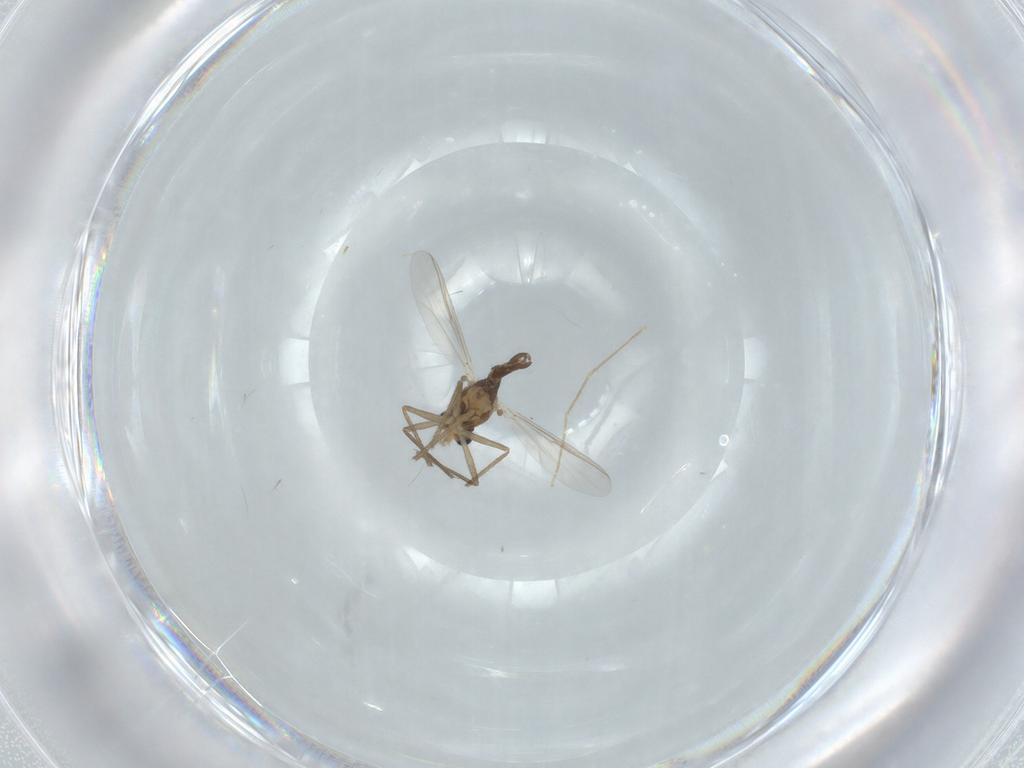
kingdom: Animalia
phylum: Arthropoda
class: Insecta
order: Diptera
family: Chironomidae
